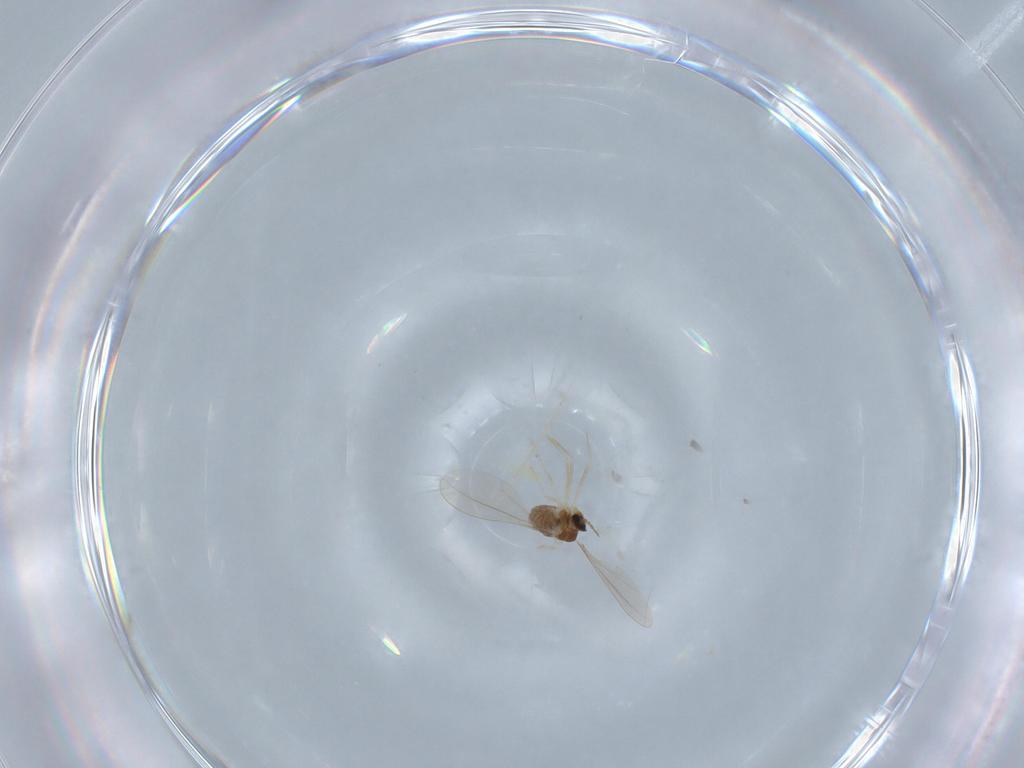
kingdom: Animalia
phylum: Arthropoda
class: Insecta
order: Diptera
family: Cecidomyiidae
